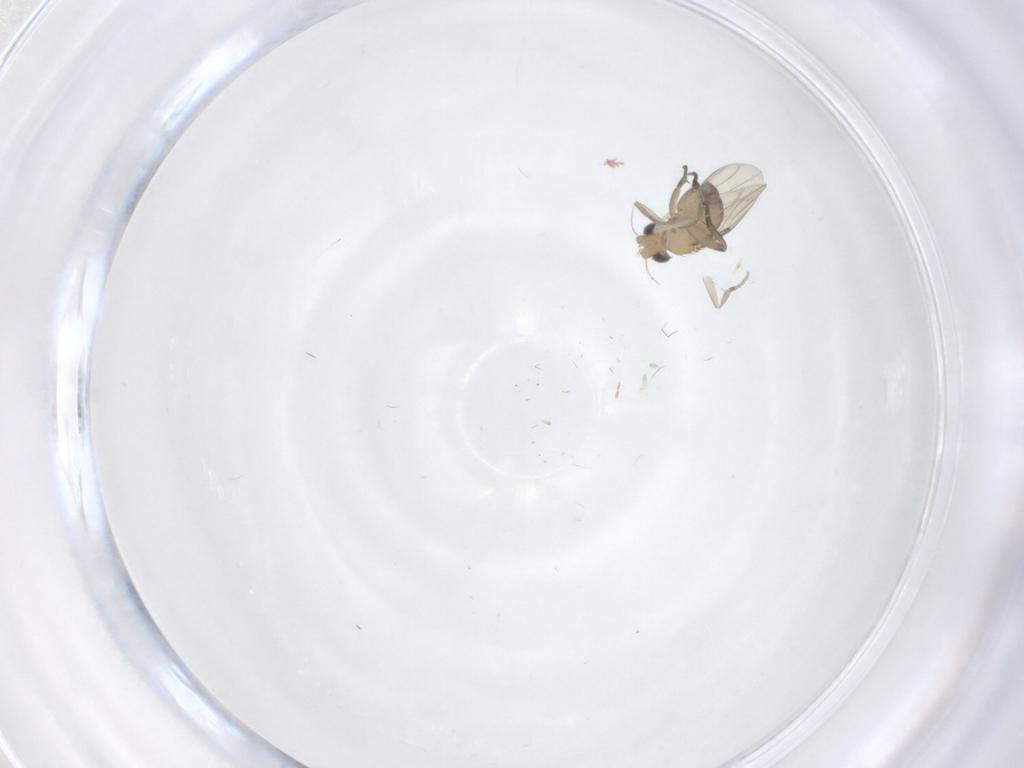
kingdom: Animalia
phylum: Arthropoda
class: Insecta
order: Diptera
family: Phoridae
